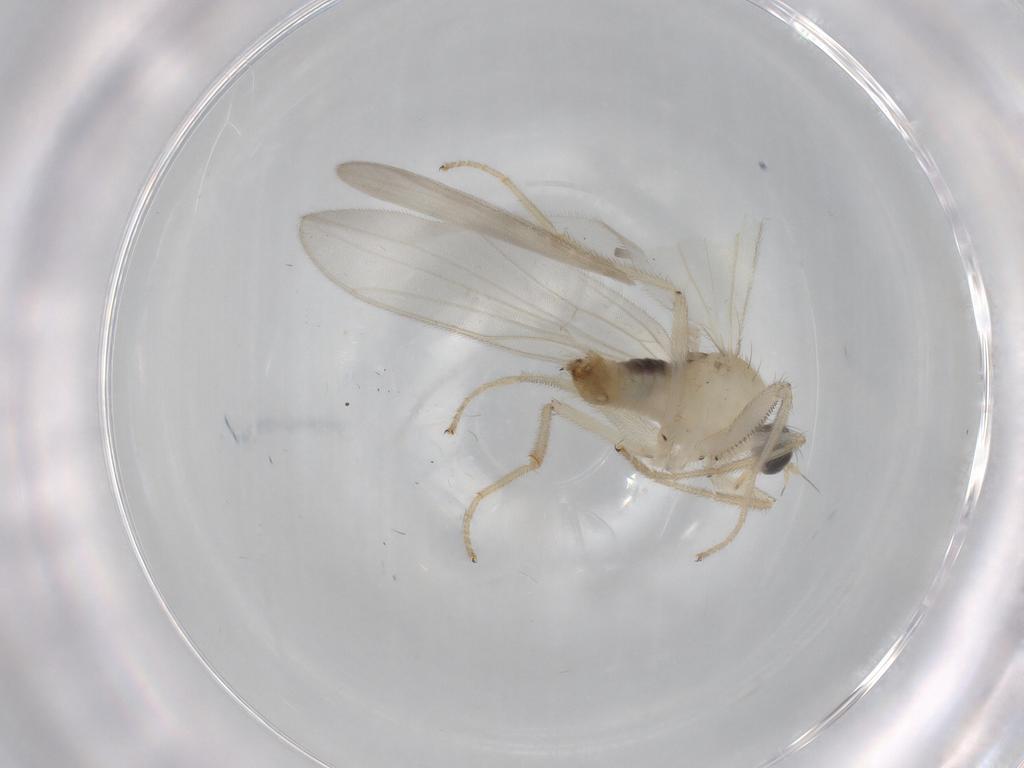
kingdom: Animalia
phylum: Arthropoda
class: Insecta
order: Diptera
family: Hybotidae
